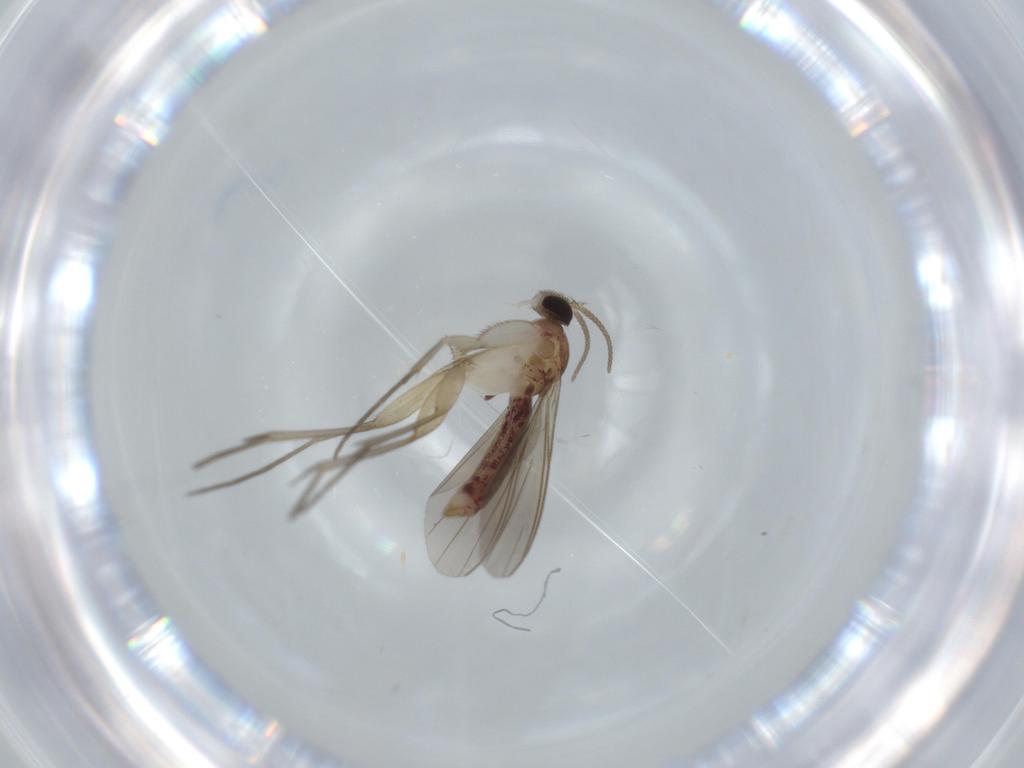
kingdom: Animalia
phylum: Arthropoda
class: Insecta
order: Diptera
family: Mycetophilidae
